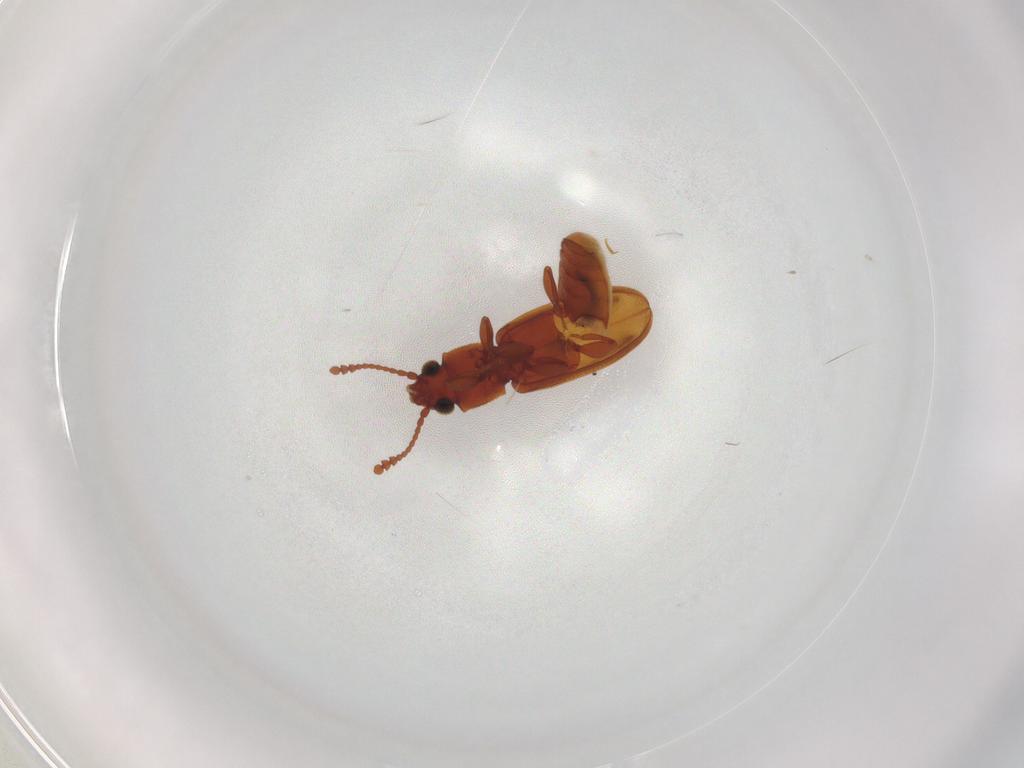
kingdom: Animalia
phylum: Arthropoda
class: Insecta
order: Coleoptera
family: Silvanidae
